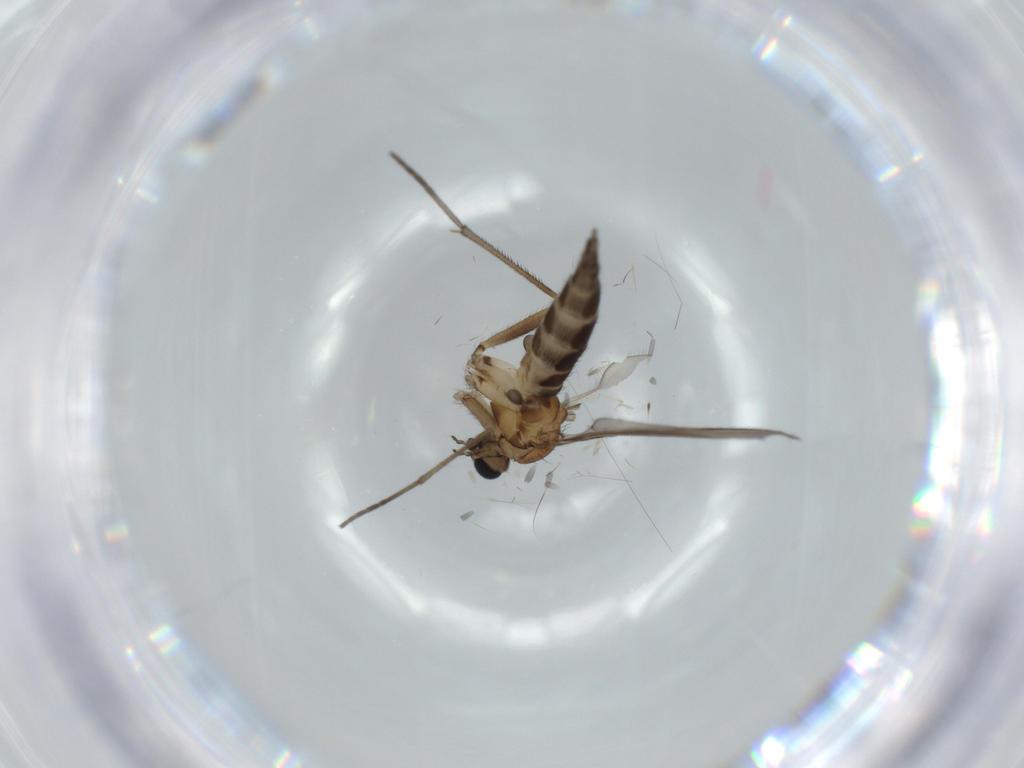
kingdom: Animalia
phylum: Arthropoda
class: Insecta
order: Diptera
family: Sciaridae
